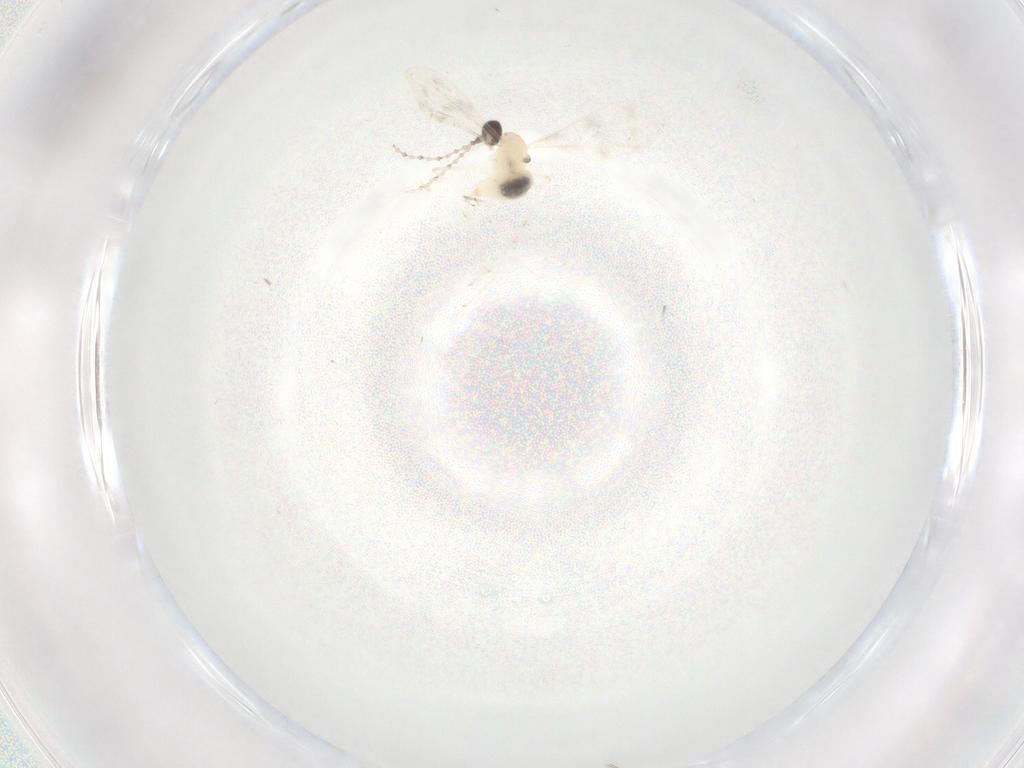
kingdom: Animalia
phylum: Arthropoda
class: Insecta
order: Diptera
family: Cecidomyiidae
